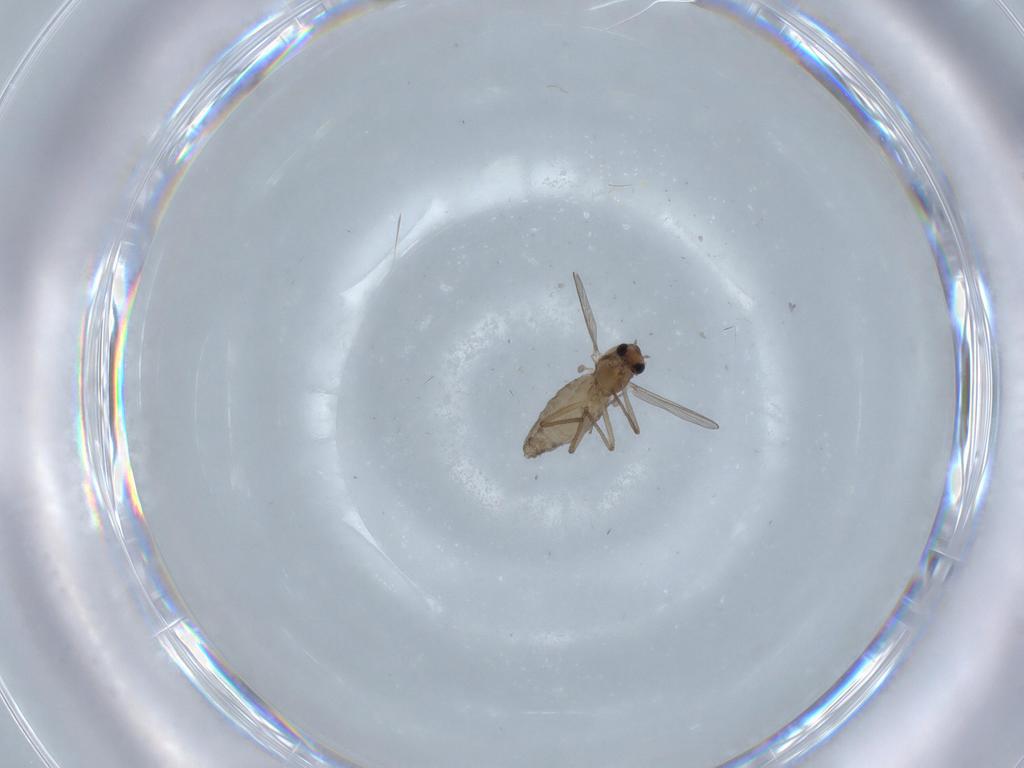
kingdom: Animalia
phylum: Arthropoda
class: Insecta
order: Diptera
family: Chironomidae
